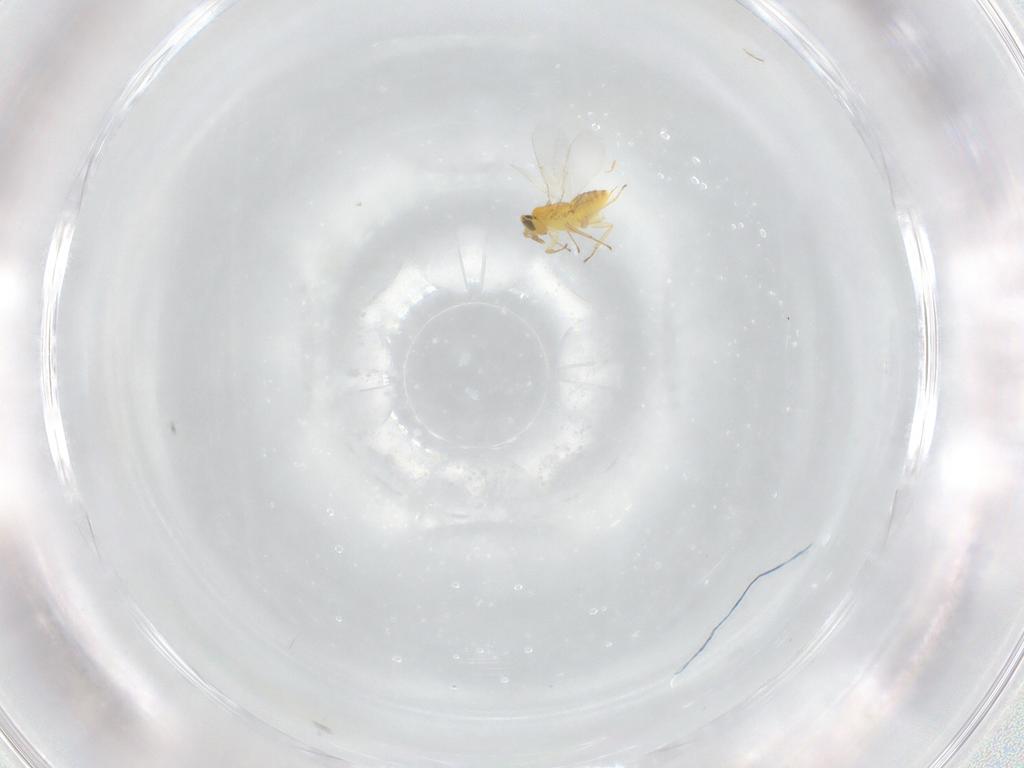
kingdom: Animalia
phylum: Arthropoda
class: Insecta
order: Hymenoptera
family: Aphelinidae
